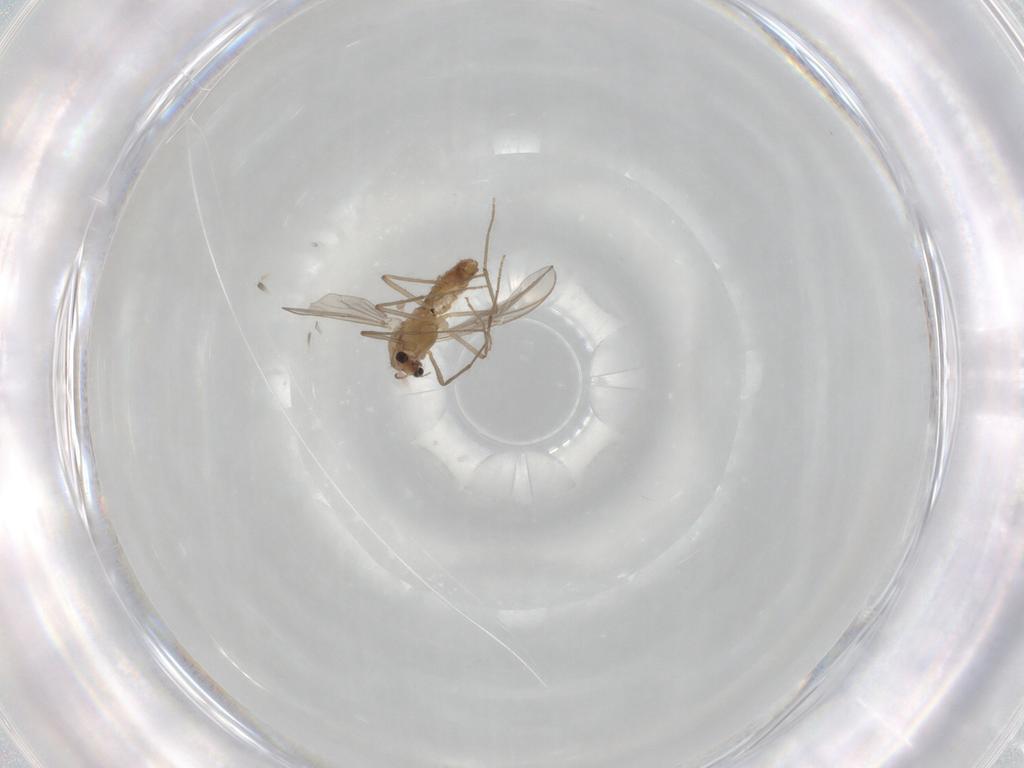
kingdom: Animalia
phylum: Arthropoda
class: Insecta
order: Diptera
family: Chironomidae
